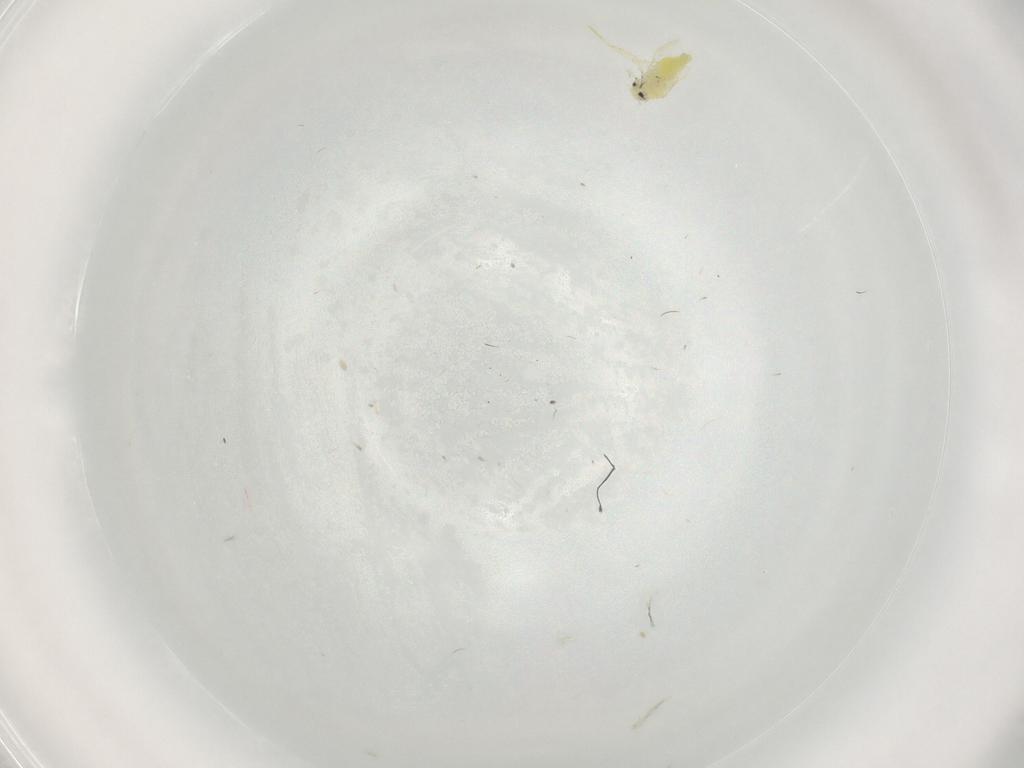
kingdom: Animalia
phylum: Arthropoda
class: Insecta
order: Hemiptera
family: Aleyrodidae
